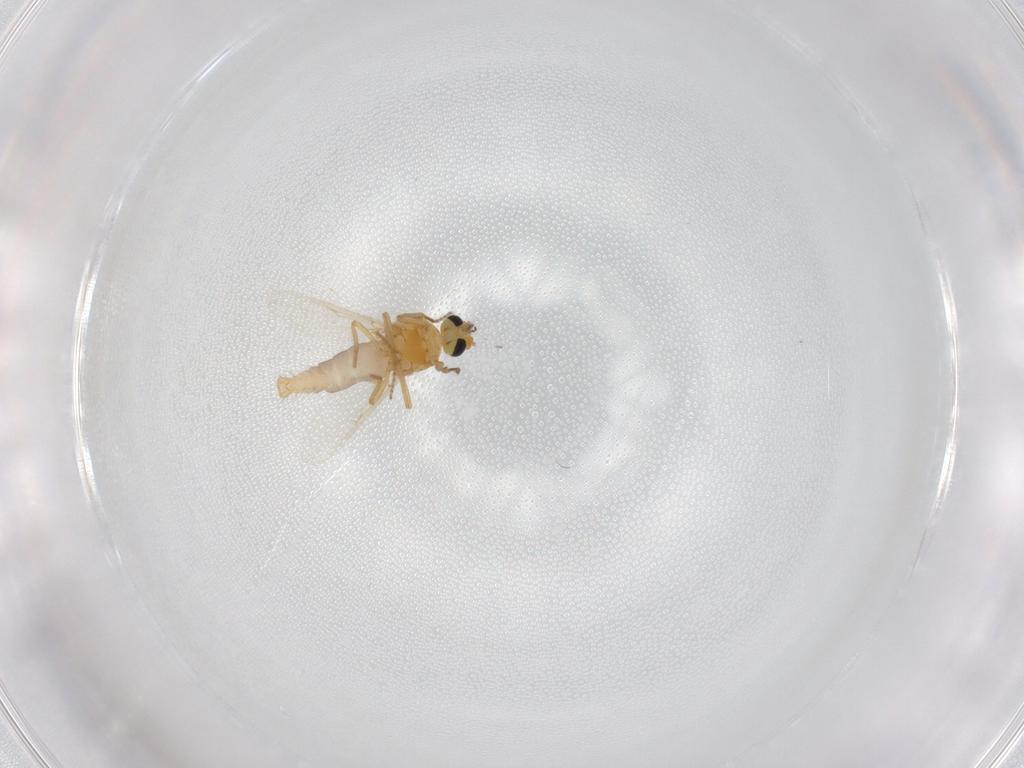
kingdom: Animalia
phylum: Arthropoda
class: Insecta
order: Diptera
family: Ceratopogonidae
